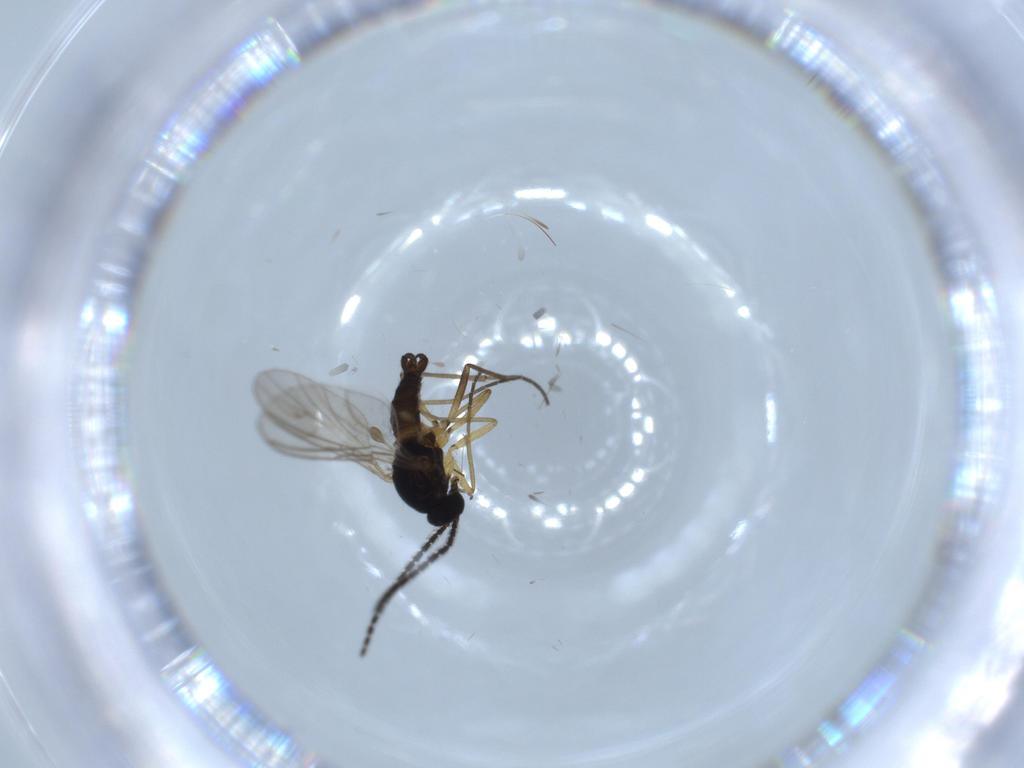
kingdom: Animalia
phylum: Arthropoda
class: Insecta
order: Diptera
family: Sciaridae
